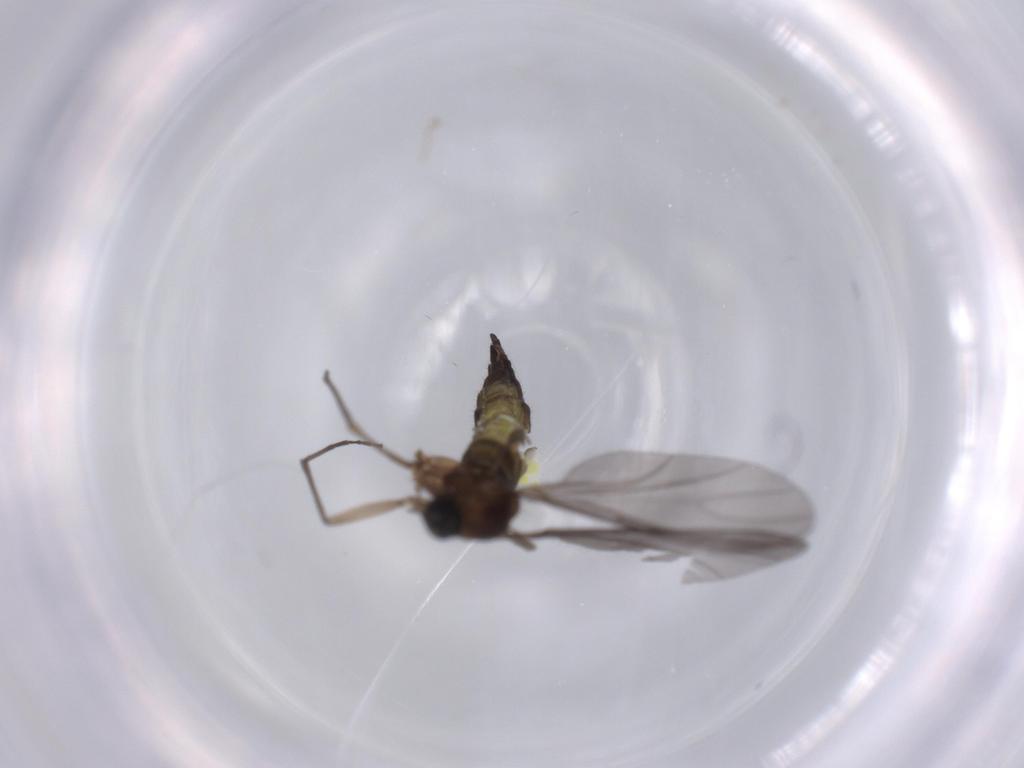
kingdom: Animalia
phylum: Arthropoda
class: Insecta
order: Diptera
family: Sciaridae
